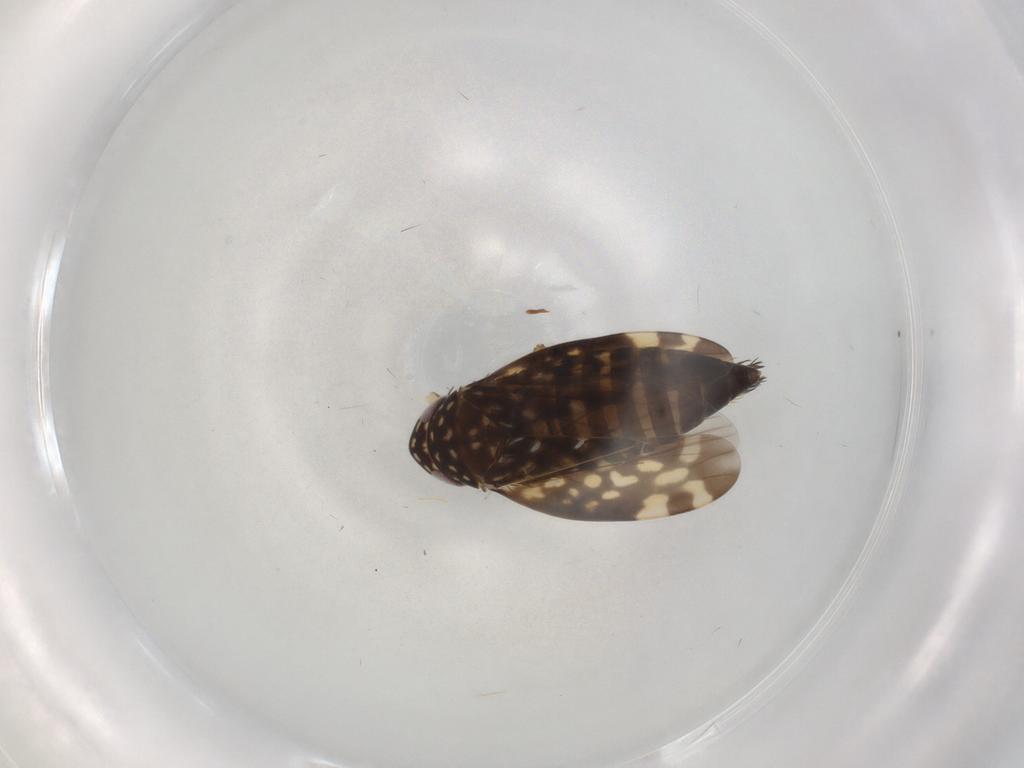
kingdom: Animalia
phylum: Arthropoda
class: Insecta
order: Hemiptera
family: Cicadellidae
